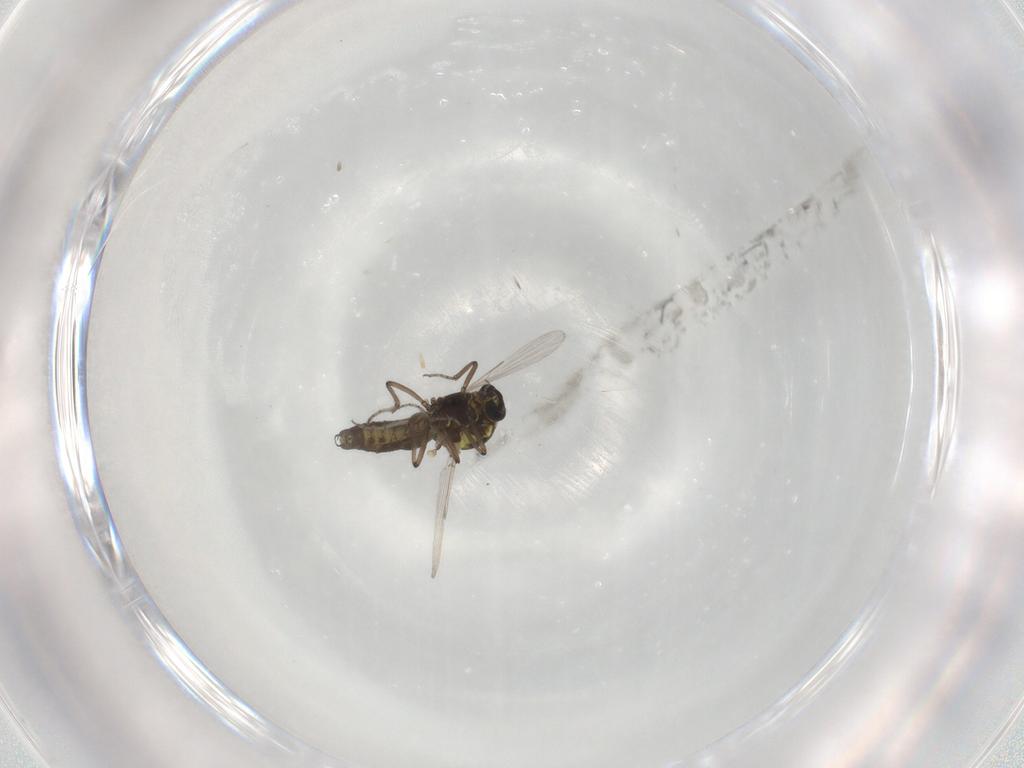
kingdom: Animalia
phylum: Arthropoda
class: Insecta
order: Diptera
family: Ceratopogonidae
